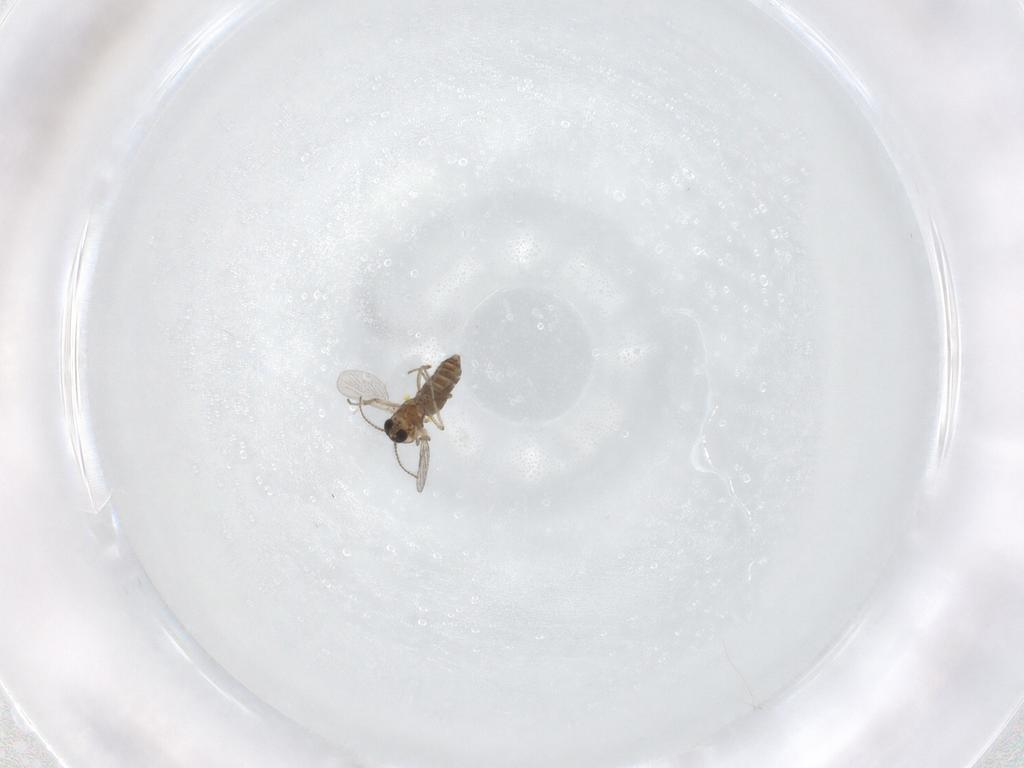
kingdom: Animalia
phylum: Arthropoda
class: Insecta
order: Diptera
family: Ceratopogonidae
